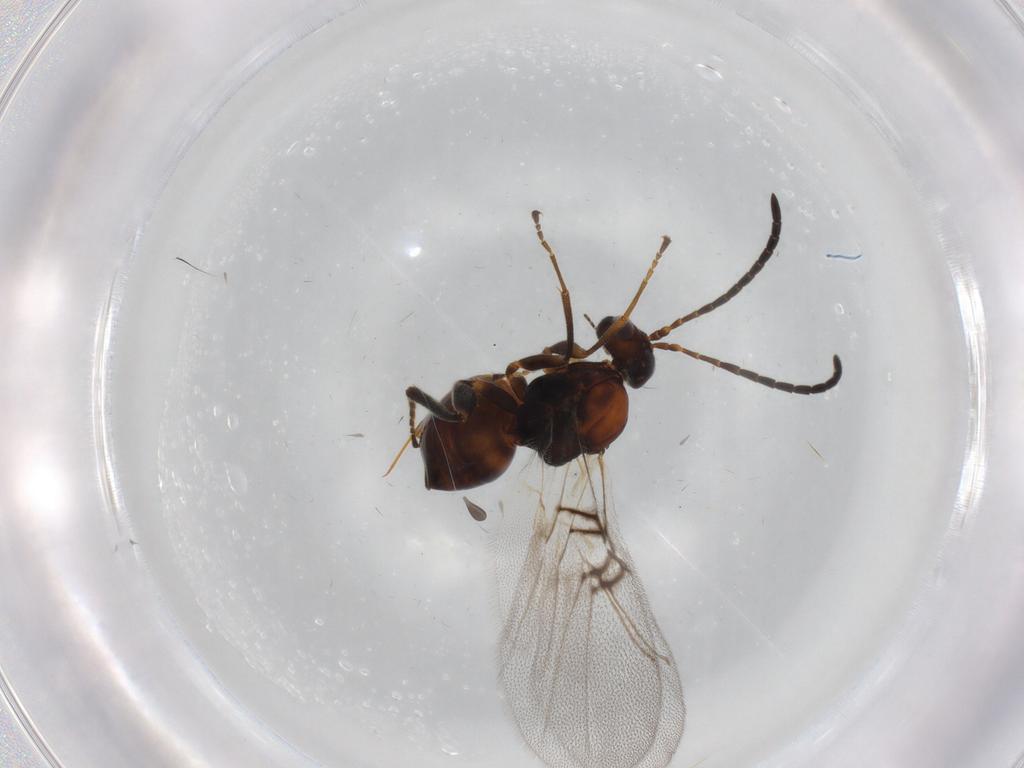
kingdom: Animalia
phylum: Arthropoda
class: Insecta
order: Hymenoptera
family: Cynipidae
